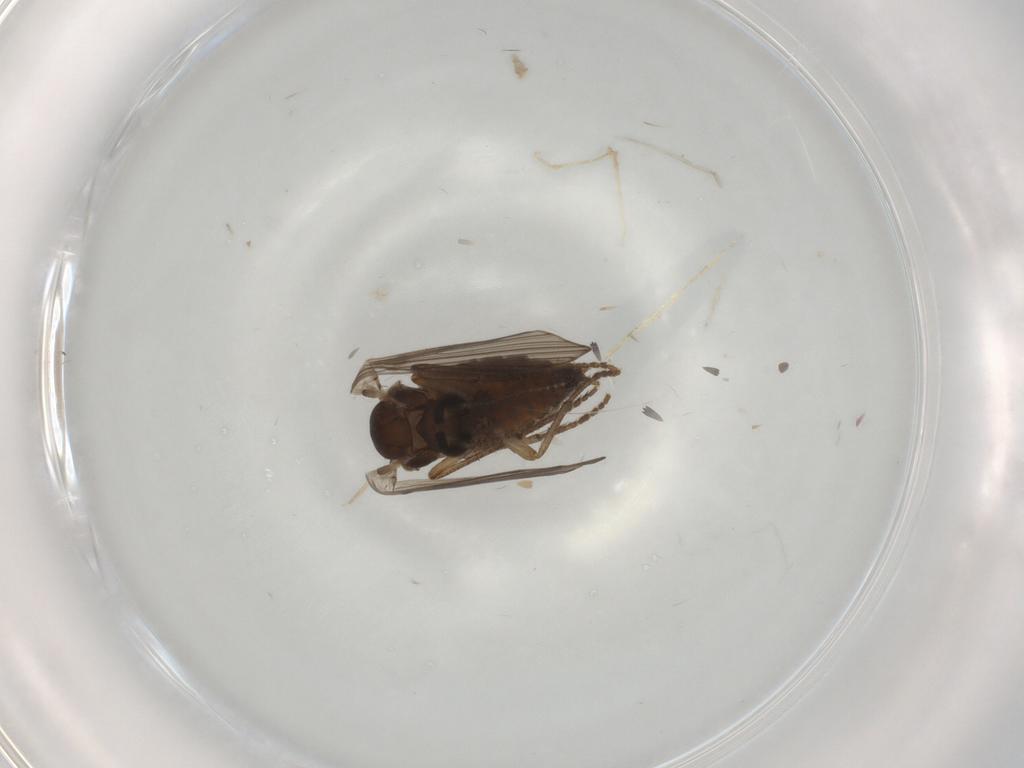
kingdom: Animalia
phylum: Arthropoda
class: Insecta
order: Diptera
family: Psychodidae
